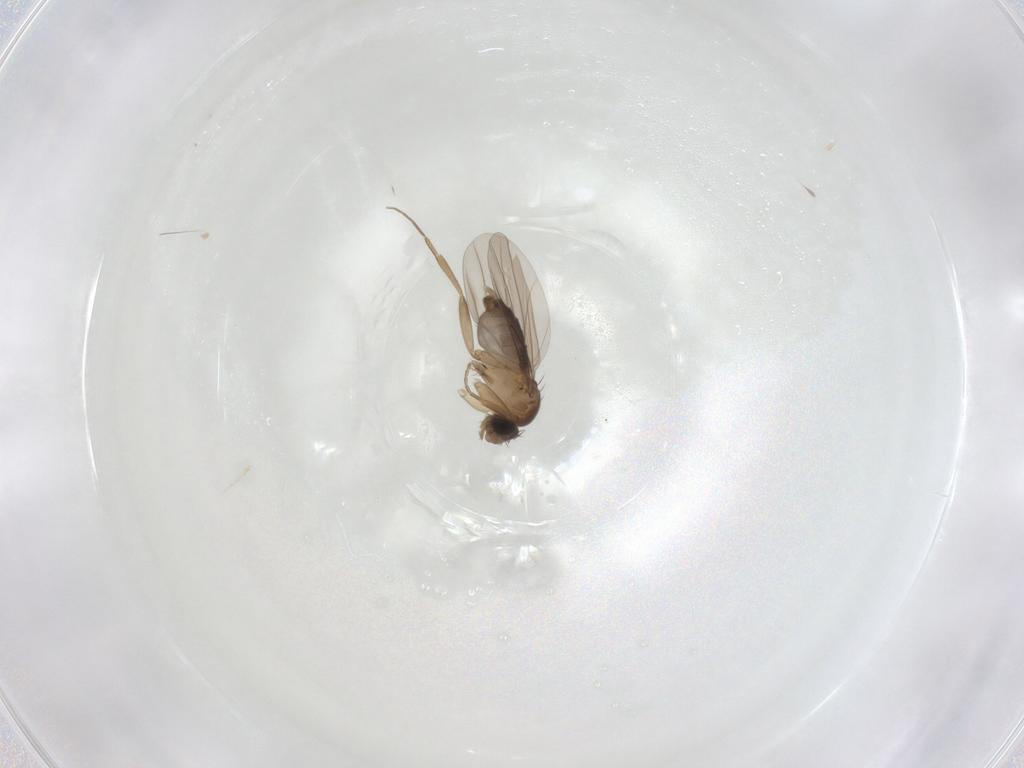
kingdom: Animalia
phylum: Arthropoda
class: Insecta
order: Diptera
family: Phoridae
